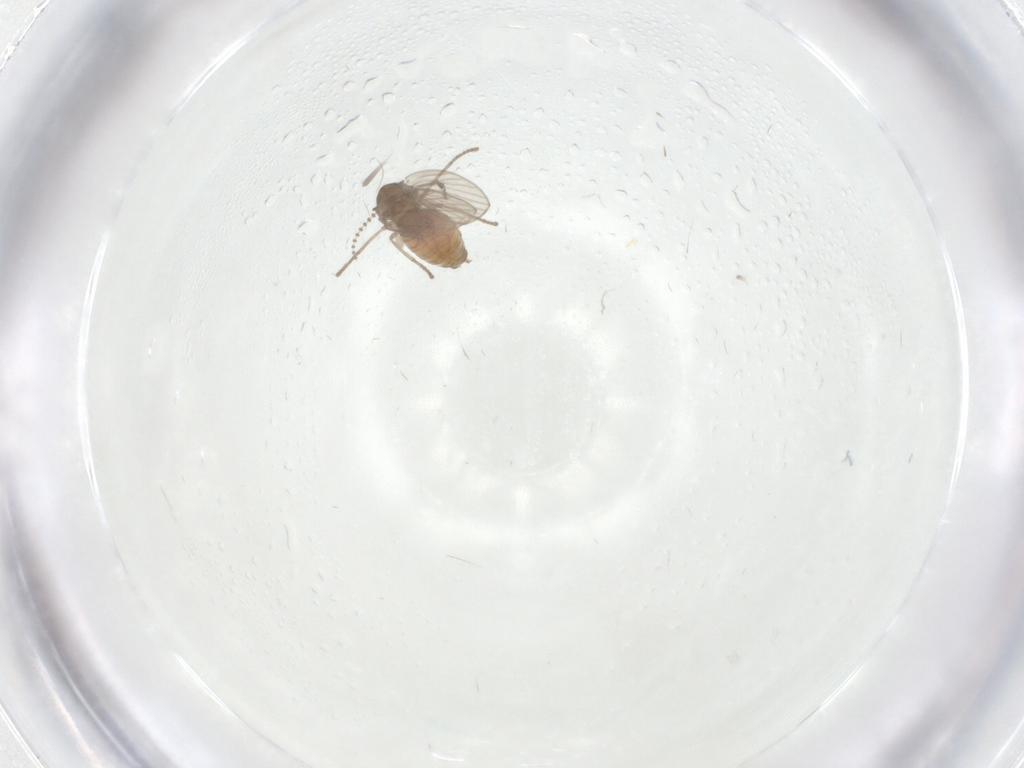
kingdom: Animalia
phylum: Arthropoda
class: Insecta
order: Diptera
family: Psychodidae
